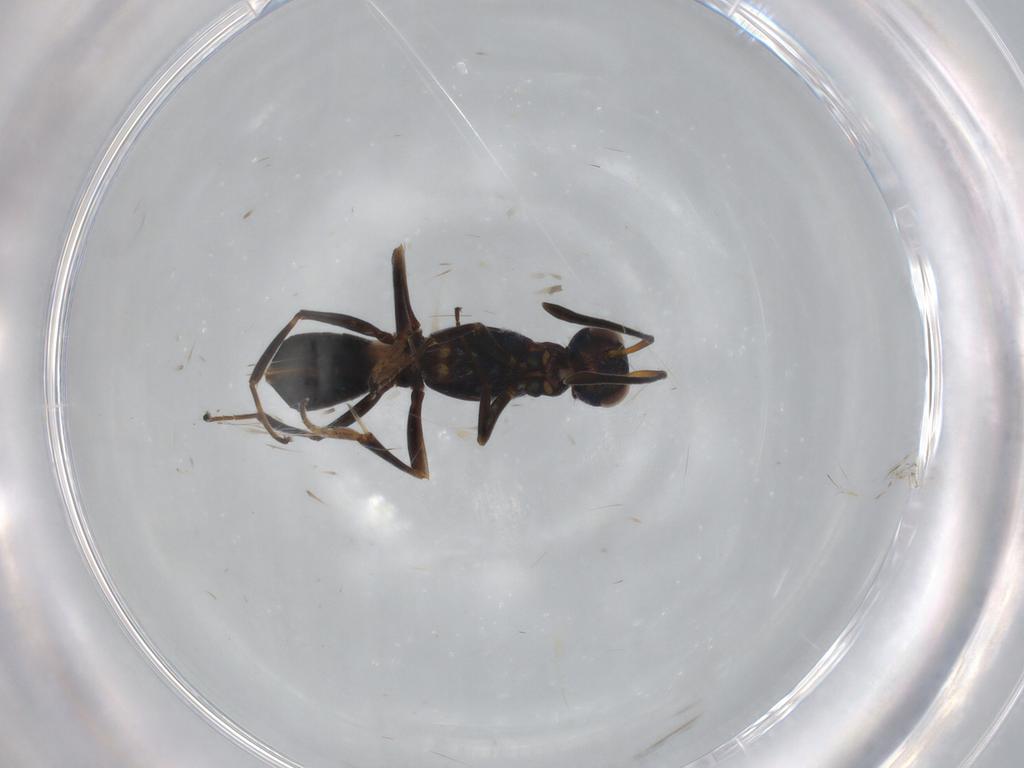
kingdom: Animalia
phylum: Arthropoda
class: Insecta
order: Hymenoptera
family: Eupelmidae
